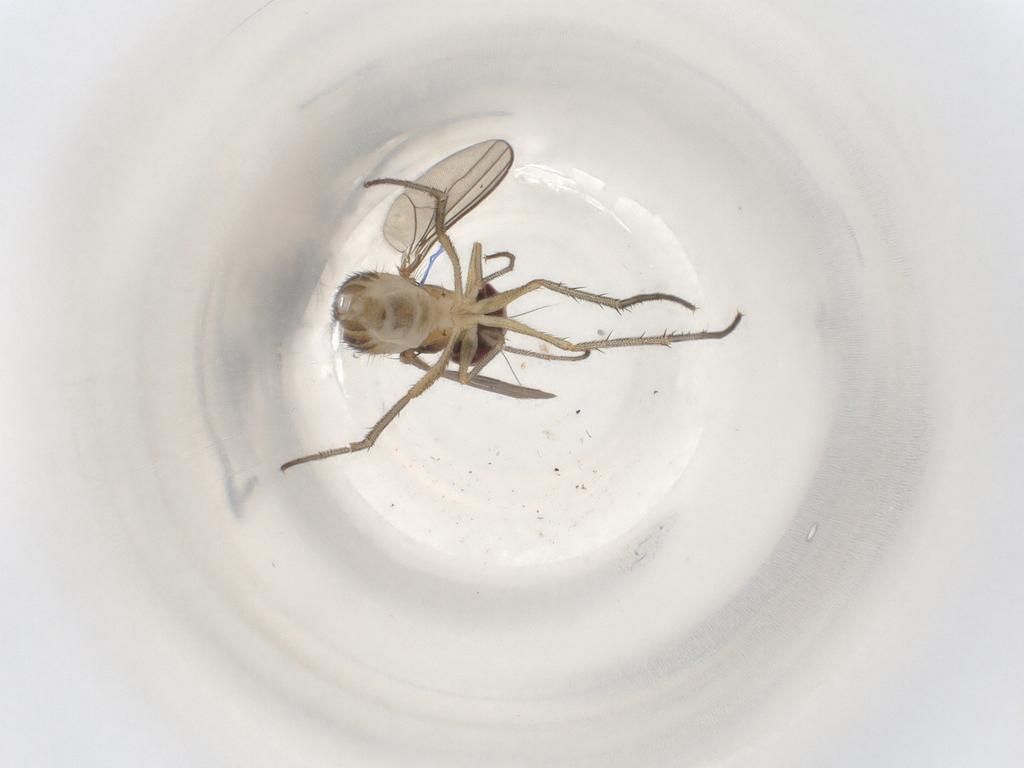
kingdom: Animalia
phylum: Arthropoda
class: Insecta
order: Diptera
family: Dolichopodidae
